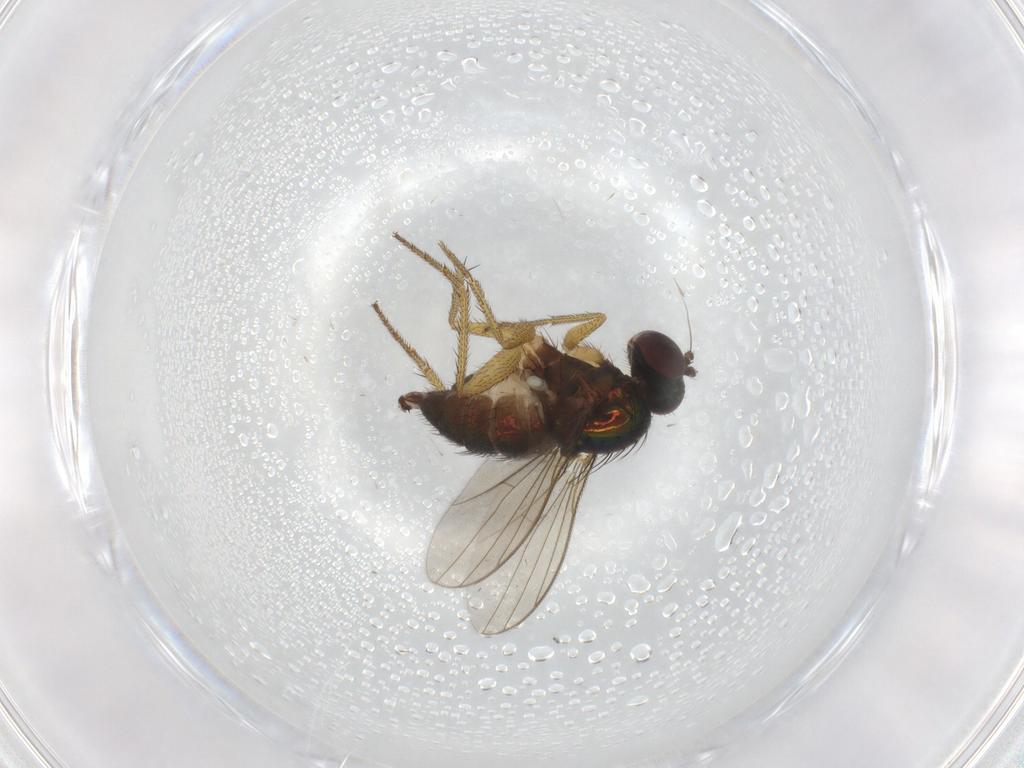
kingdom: Animalia
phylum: Arthropoda
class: Insecta
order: Diptera
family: Dolichopodidae
